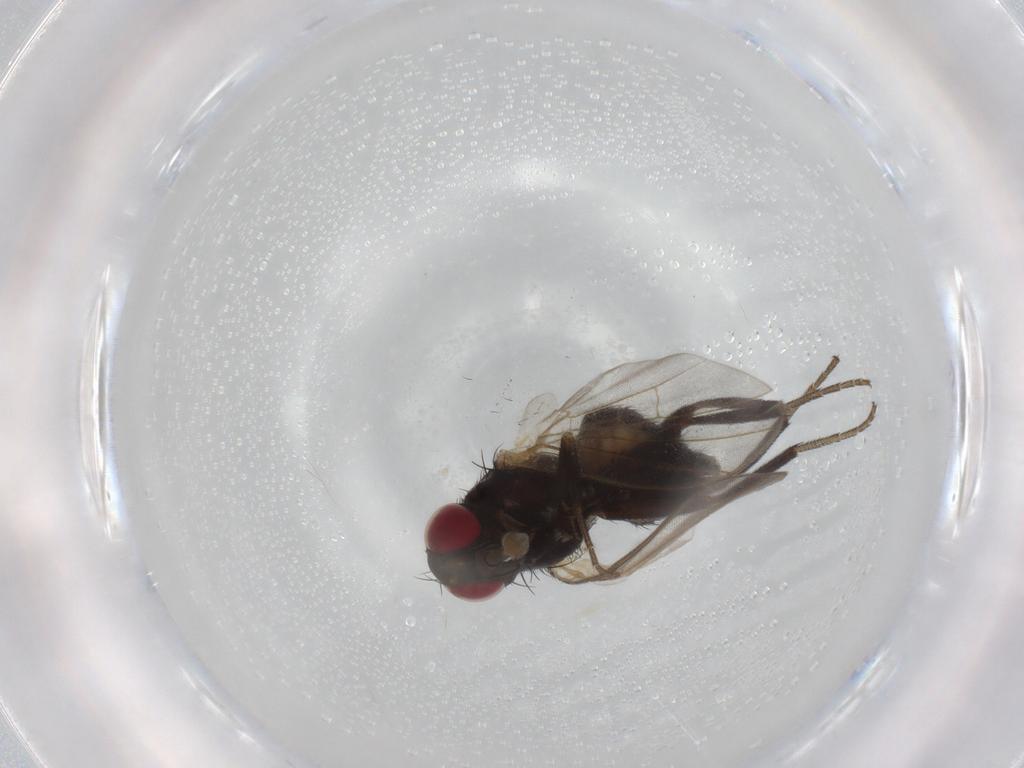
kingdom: Animalia
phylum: Arthropoda
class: Insecta
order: Diptera
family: Agromyzidae
